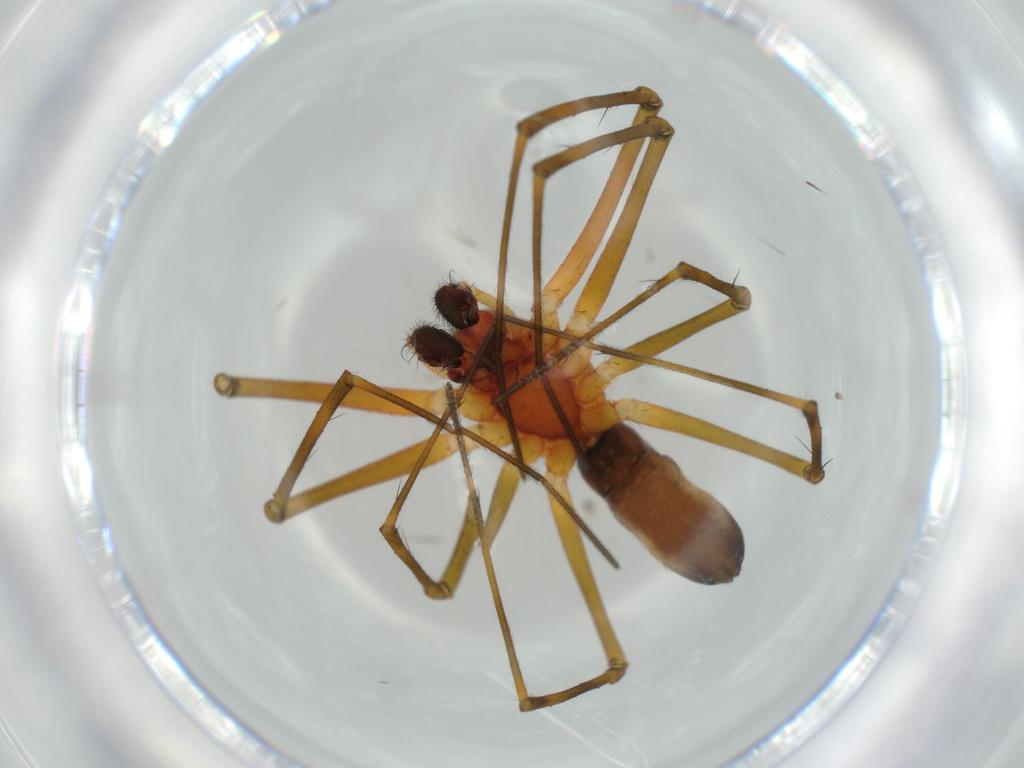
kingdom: Animalia
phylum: Arthropoda
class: Arachnida
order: Araneae
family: Linyphiidae
